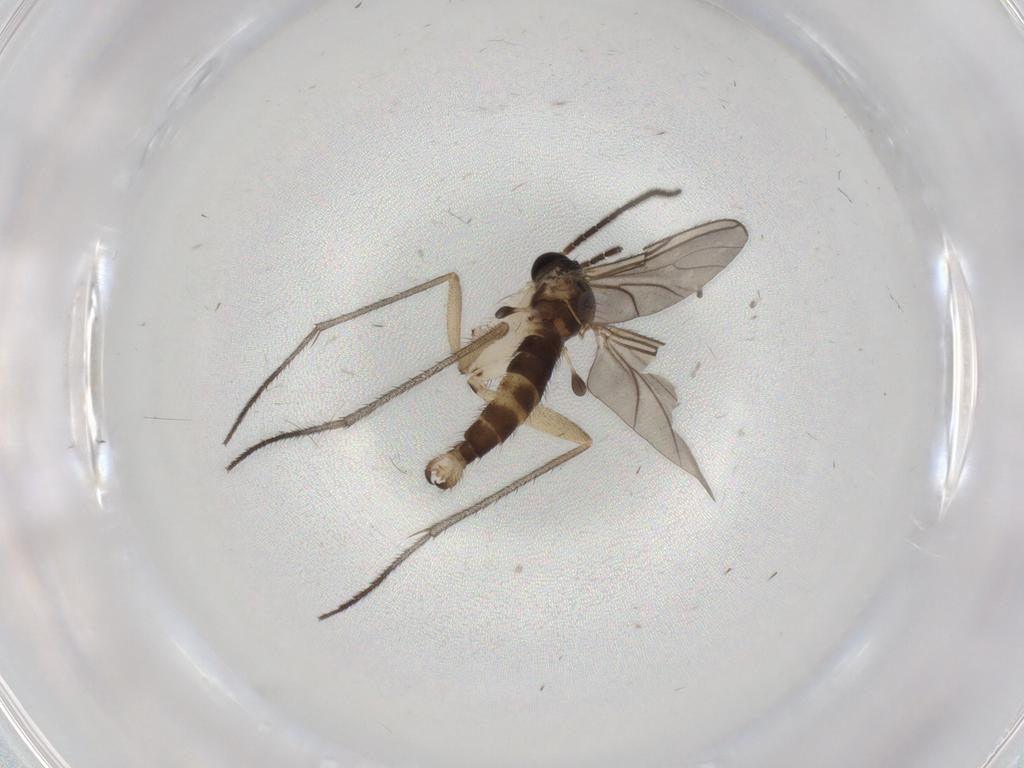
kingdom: Animalia
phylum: Arthropoda
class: Insecta
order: Diptera
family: Sciaridae
